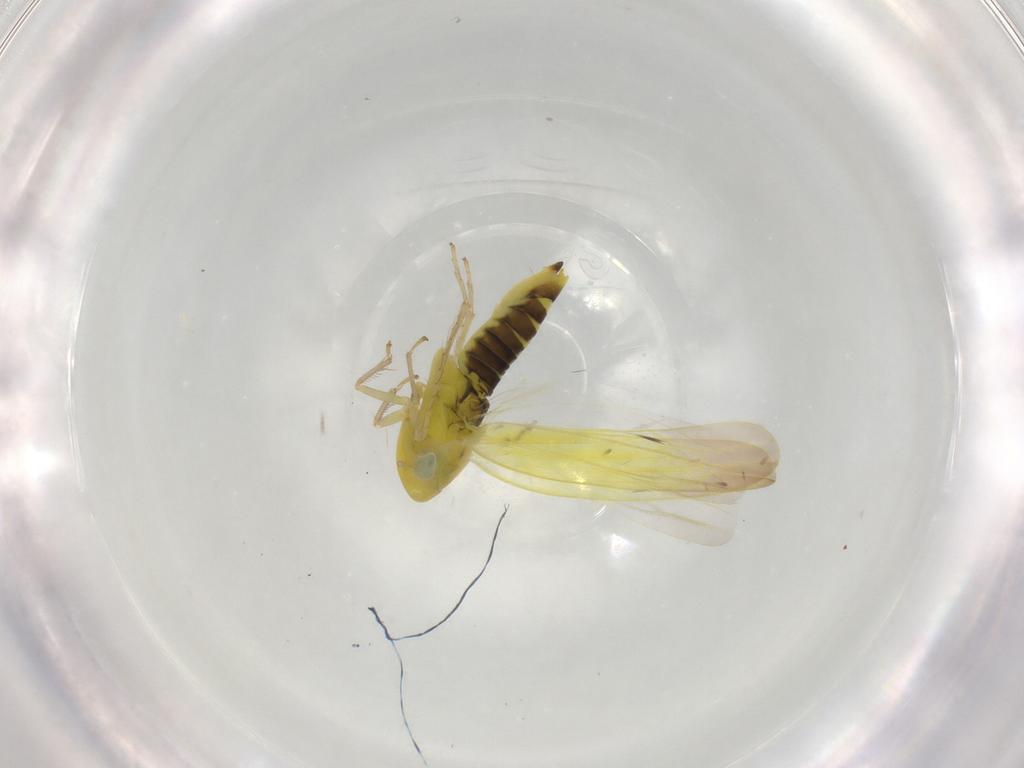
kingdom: Animalia
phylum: Arthropoda
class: Insecta
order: Hemiptera
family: Cicadellidae
